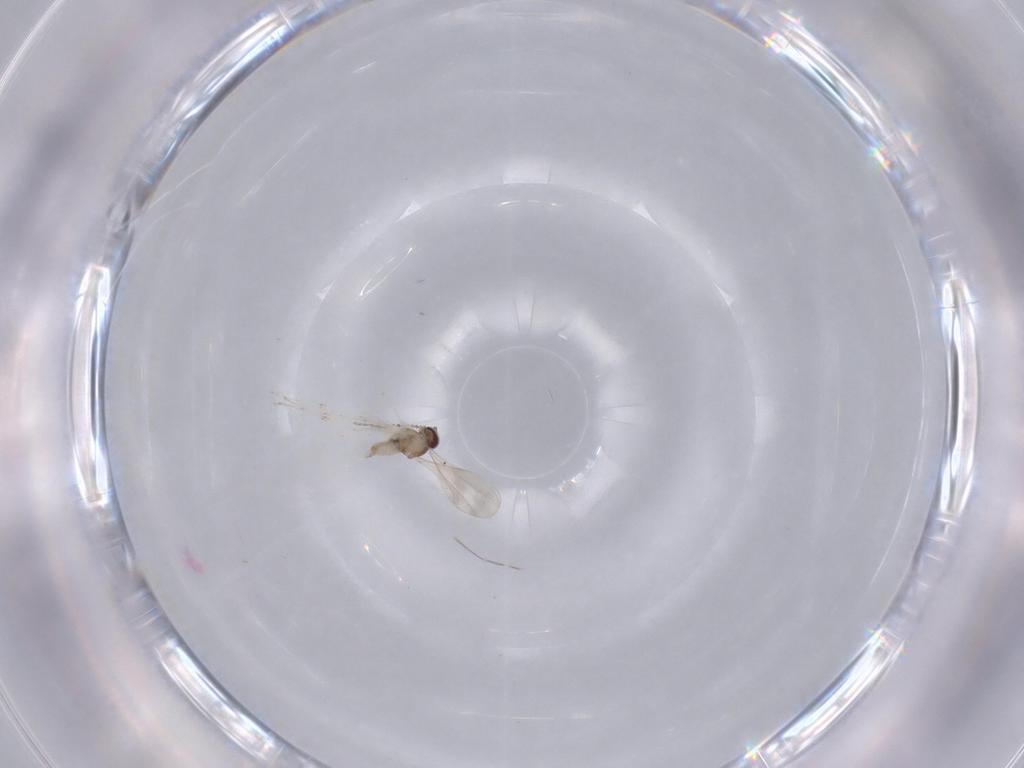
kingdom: Animalia
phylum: Arthropoda
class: Insecta
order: Diptera
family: Cecidomyiidae
